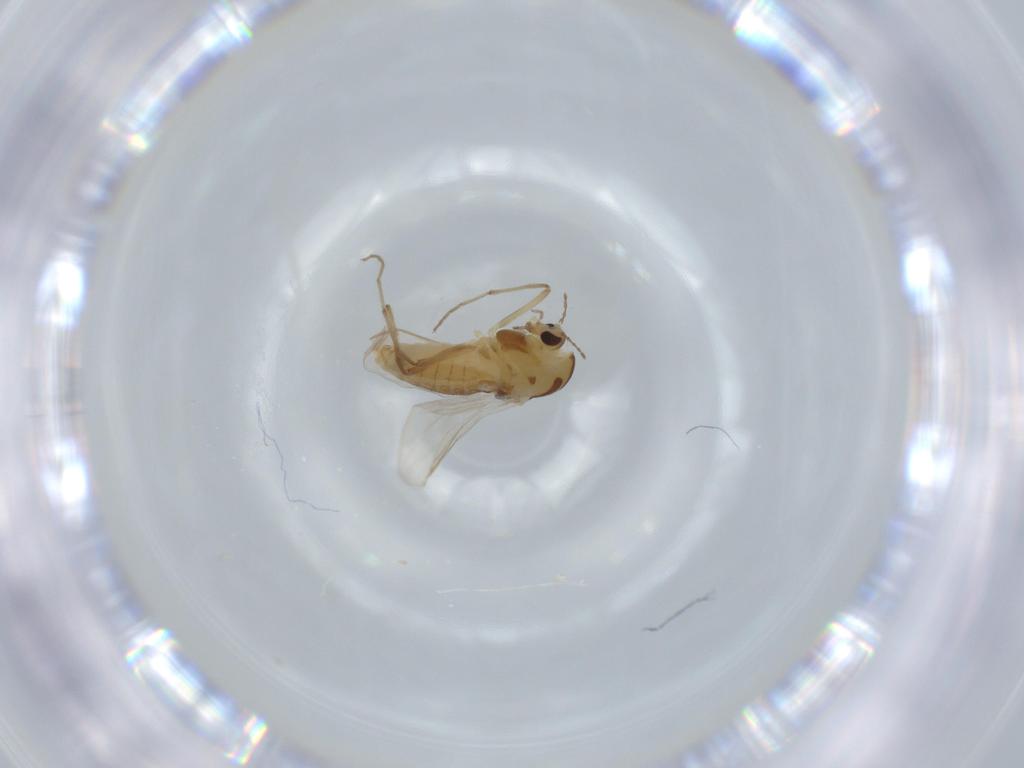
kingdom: Animalia
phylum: Arthropoda
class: Insecta
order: Diptera
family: Chironomidae
